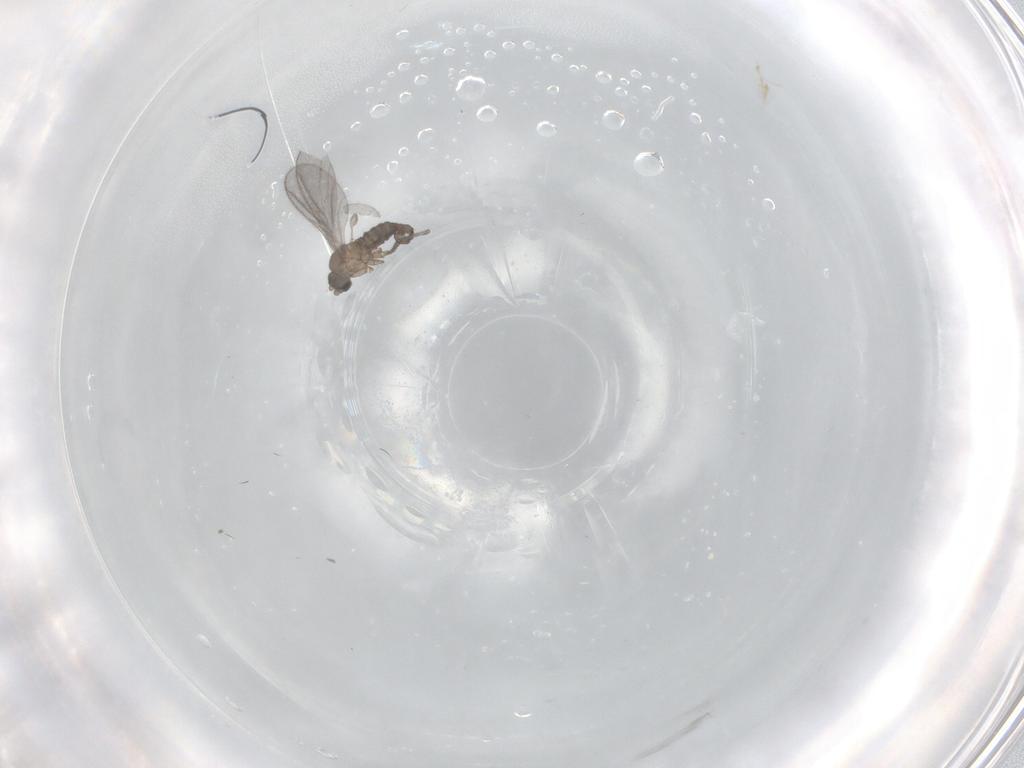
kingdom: Animalia
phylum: Arthropoda
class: Insecta
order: Diptera
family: Sciaridae
